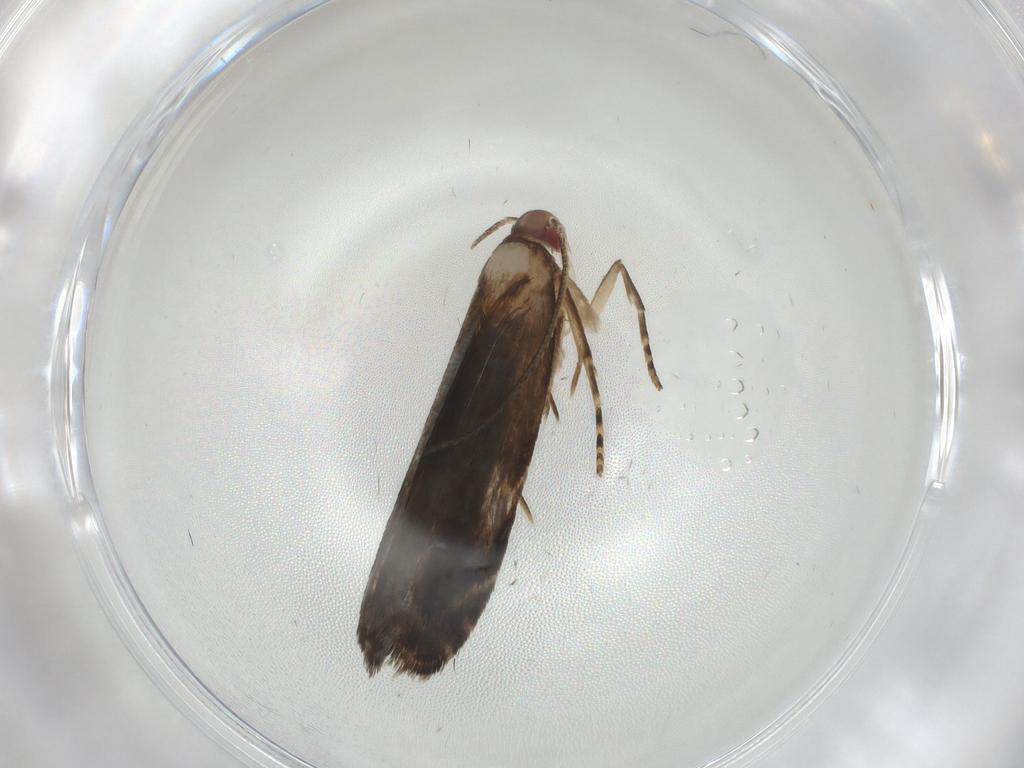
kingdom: Animalia
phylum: Arthropoda
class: Insecta
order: Lepidoptera
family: Gelechiidae
